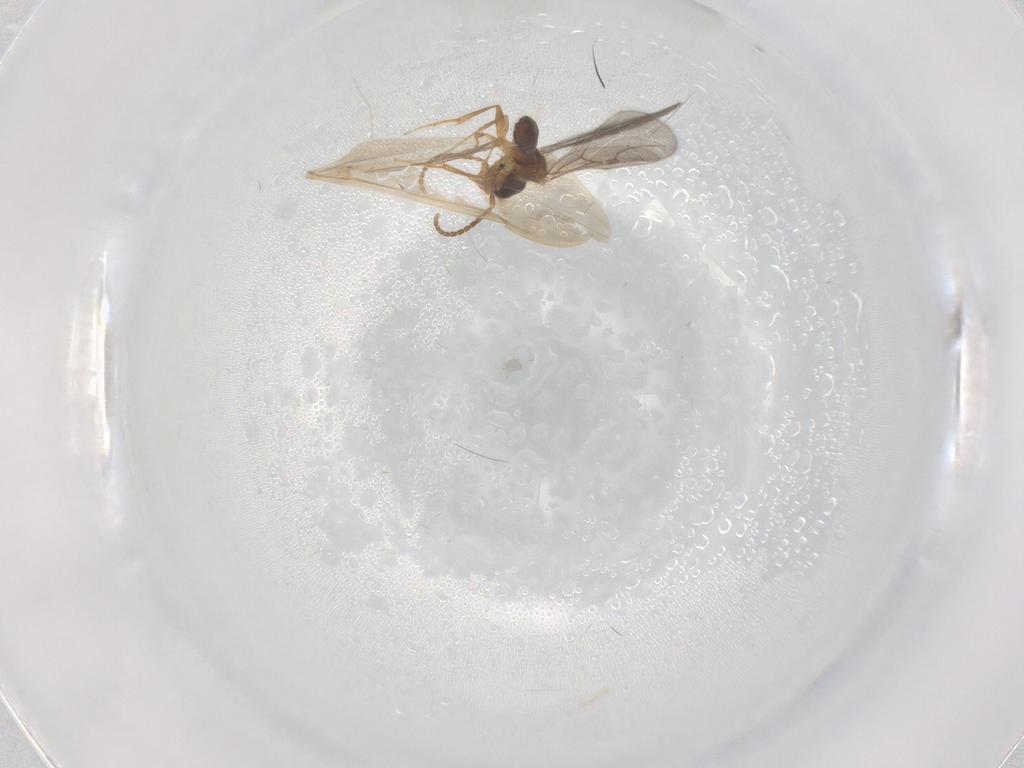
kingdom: Animalia
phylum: Arthropoda
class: Insecta
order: Hymenoptera
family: Bethylidae
